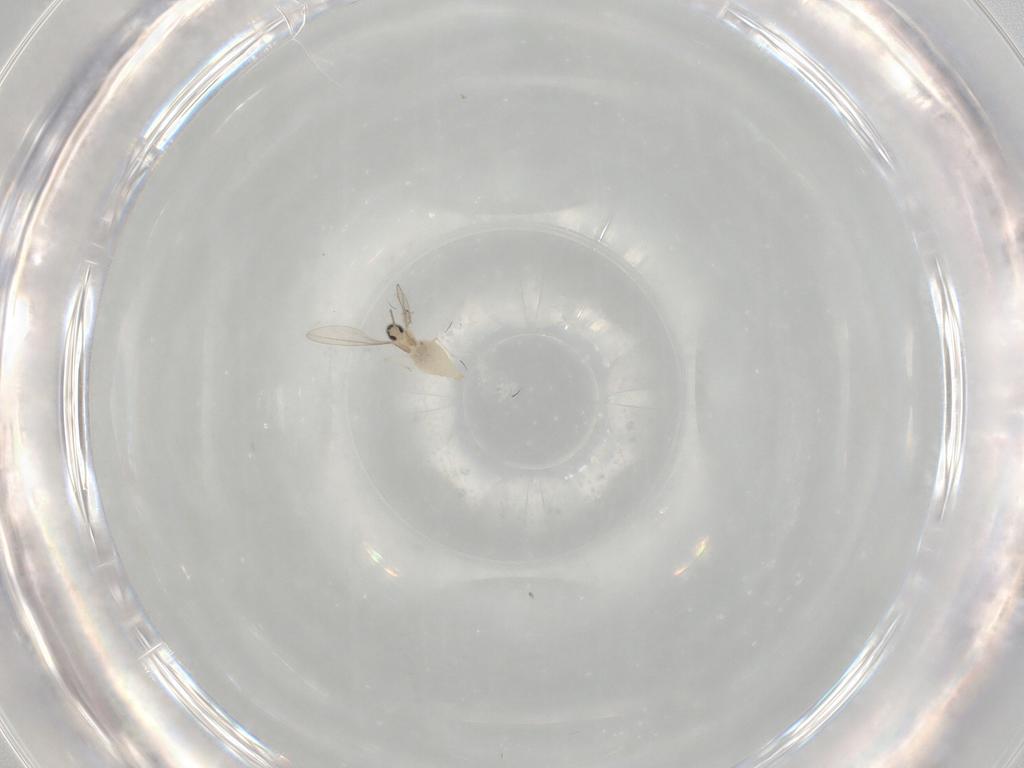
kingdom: Animalia
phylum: Arthropoda
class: Insecta
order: Diptera
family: Cecidomyiidae
